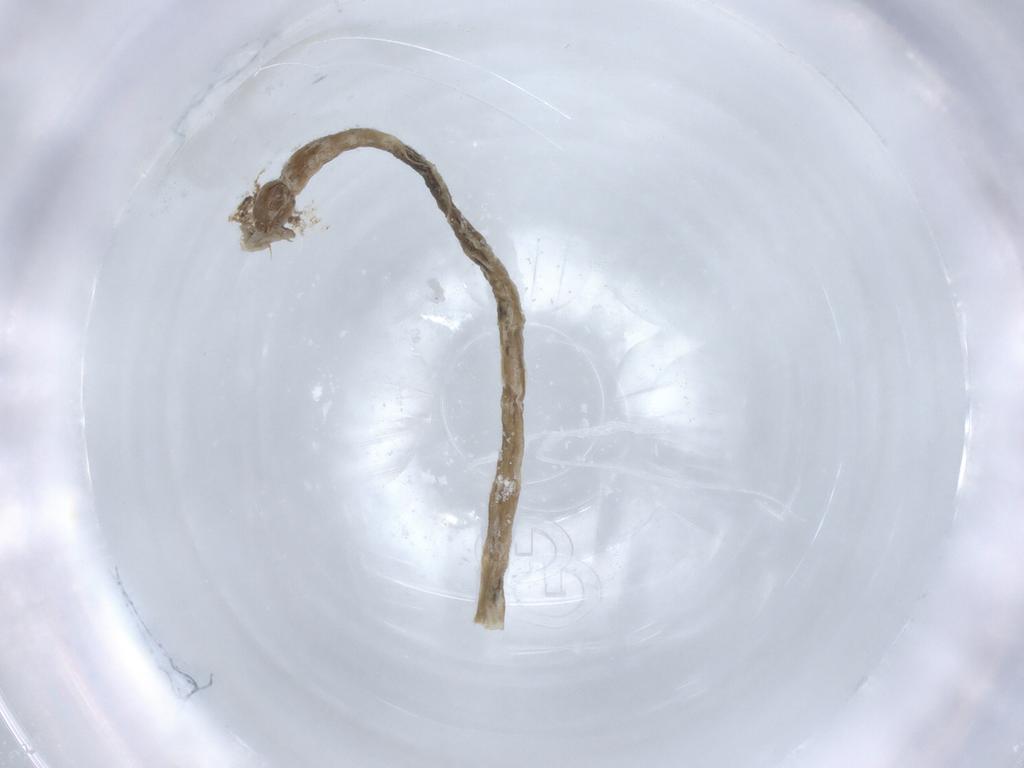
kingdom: Animalia
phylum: Arthropoda
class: Insecta
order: Diptera
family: Chironomidae
